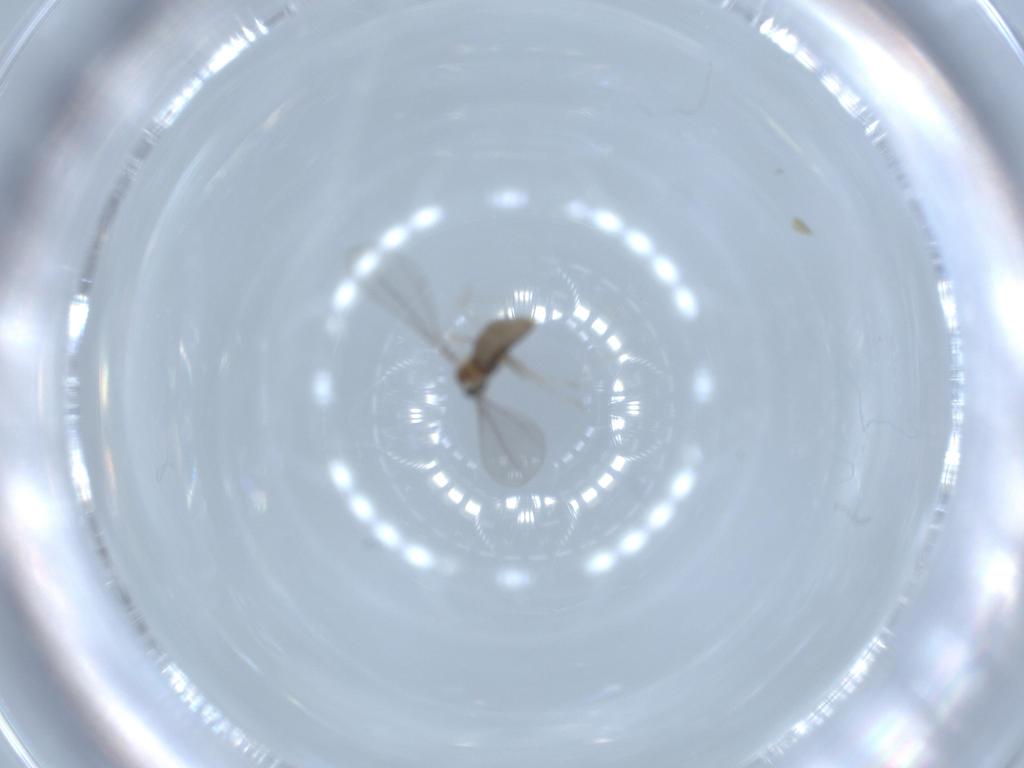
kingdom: Animalia
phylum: Arthropoda
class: Insecta
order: Diptera
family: Cecidomyiidae
